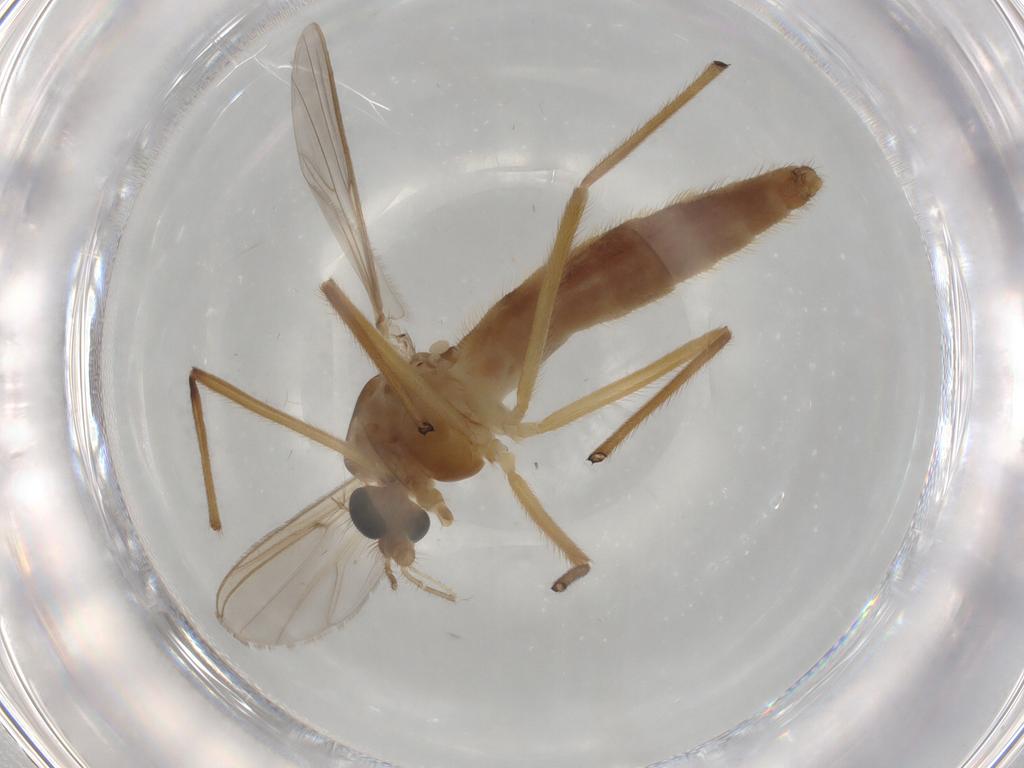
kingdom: Animalia
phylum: Arthropoda
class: Insecta
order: Diptera
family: Chironomidae
